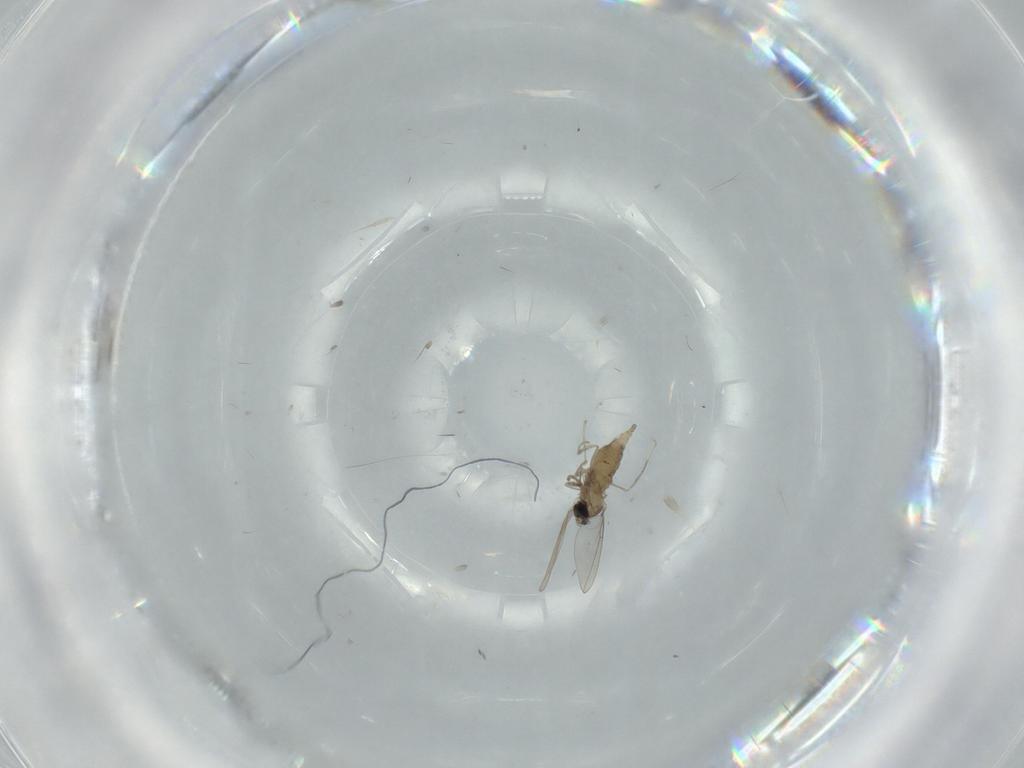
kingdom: Animalia
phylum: Arthropoda
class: Insecta
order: Diptera
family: Cecidomyiidae
